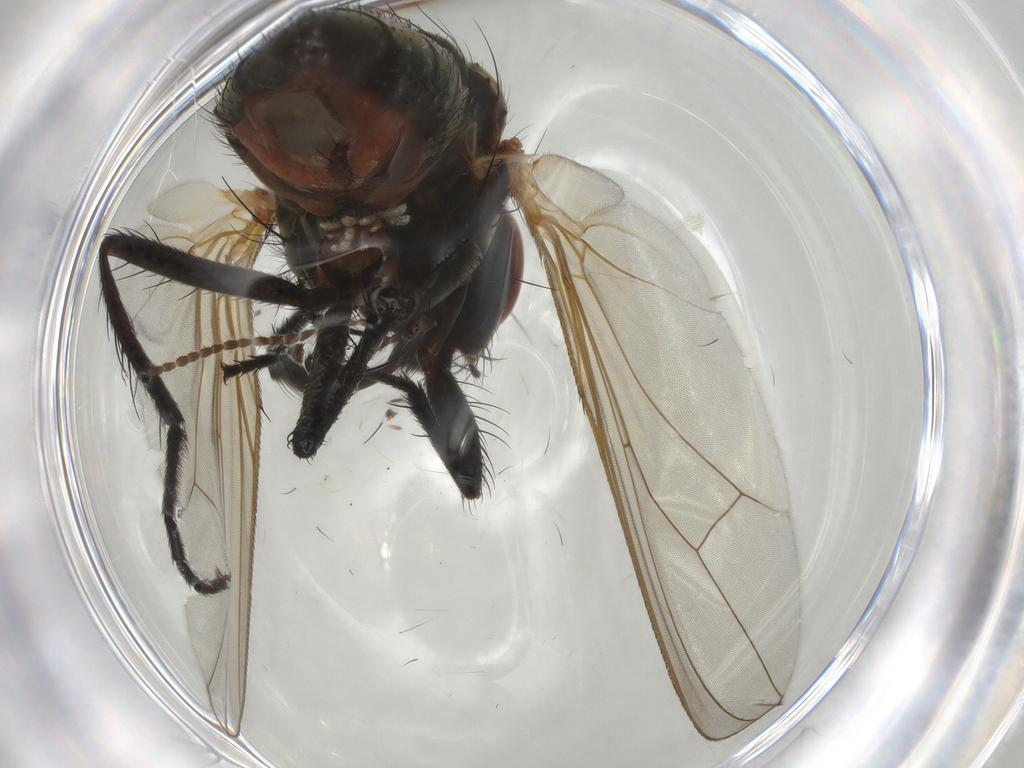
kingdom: Animalia
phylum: Arthropoda
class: Insecta
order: Diptera
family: Anthomyiidae
